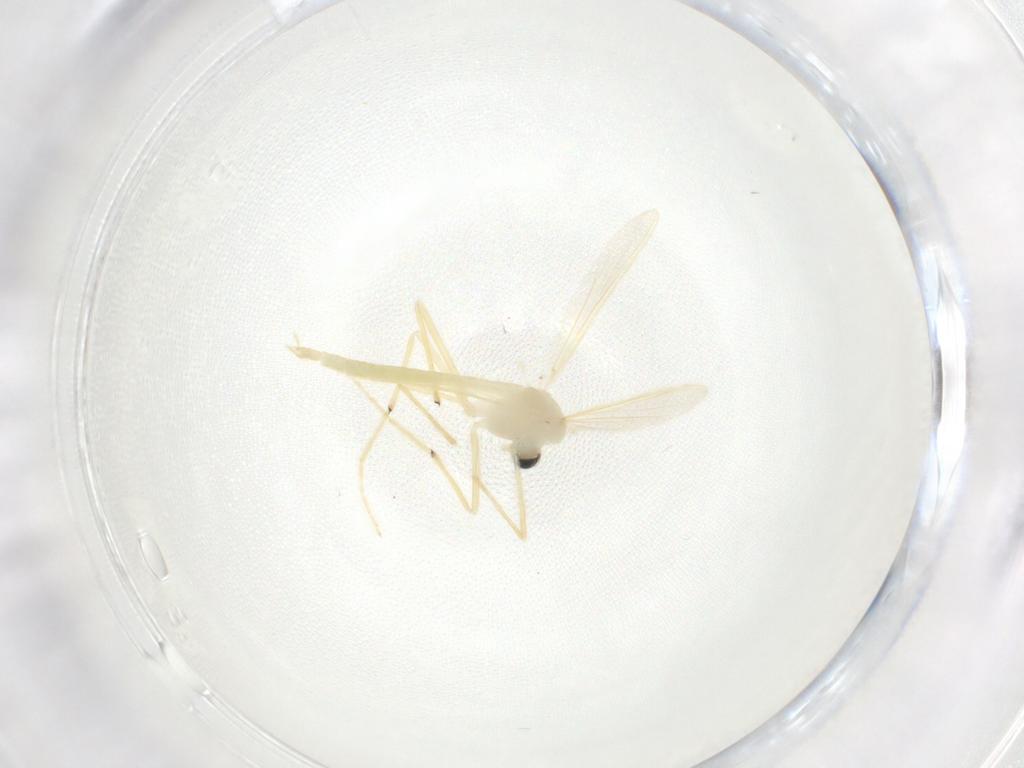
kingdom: Animalia
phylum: Arthropoda
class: Insecta
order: Diptera
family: Chironomidae
